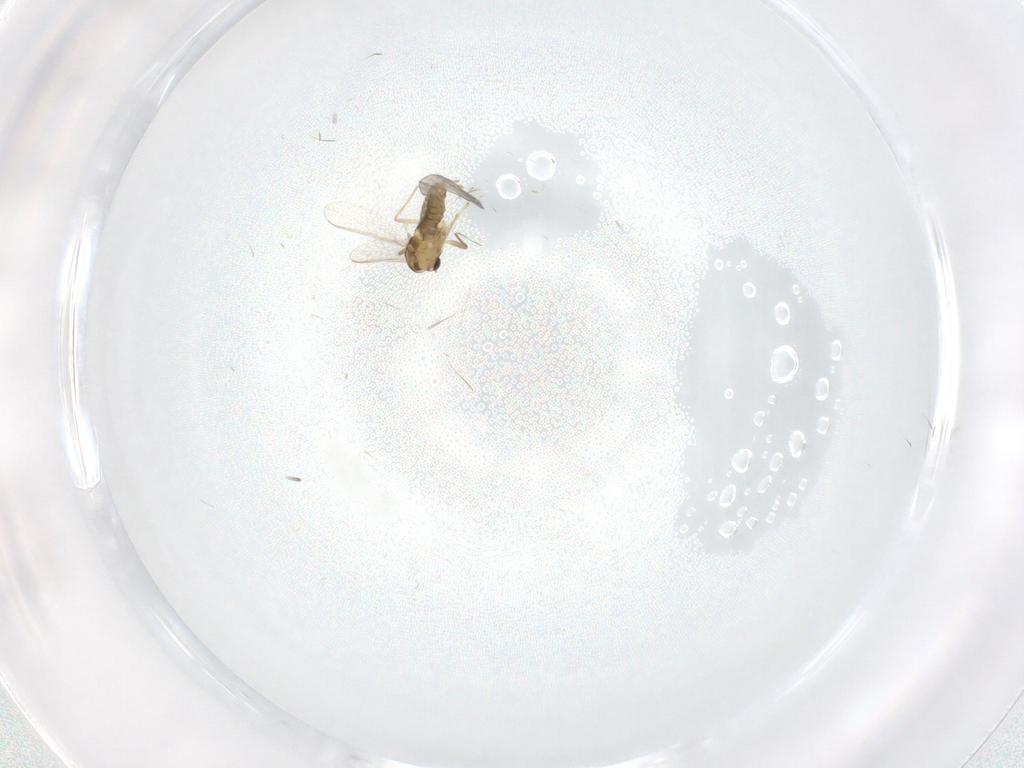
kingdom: Animalia
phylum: Arthropoda
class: Insecta
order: Diptera
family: Chironomidae
